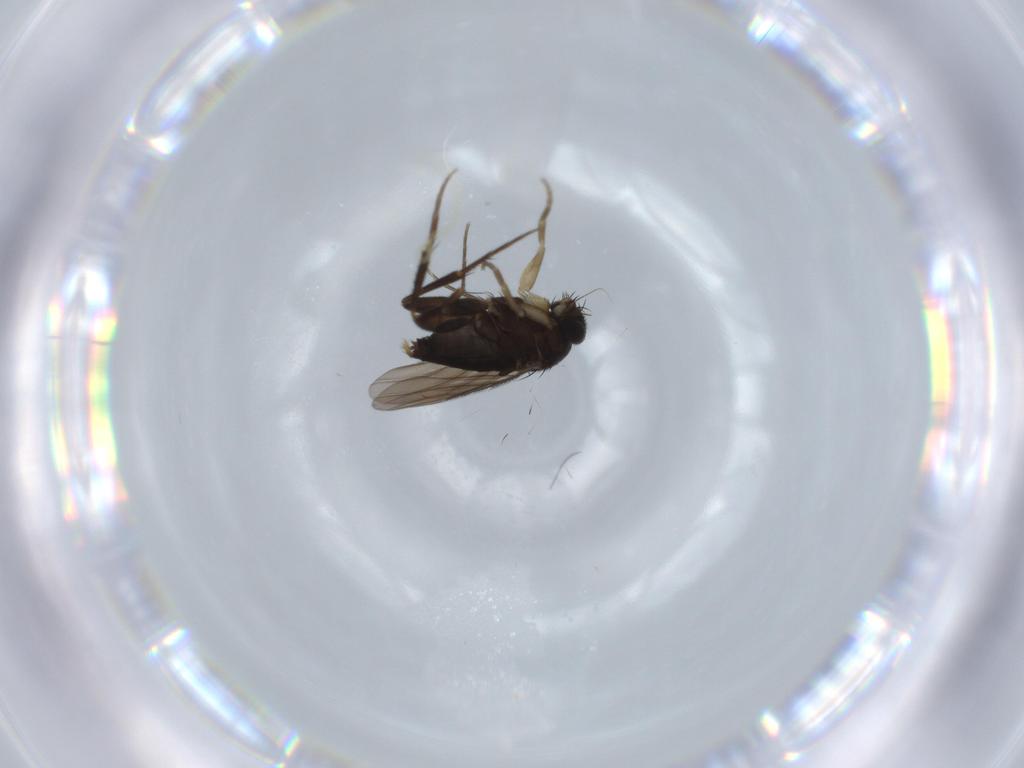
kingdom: Animalia
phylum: Arthropoda
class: Insecta
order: Diptera
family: Phoridae
